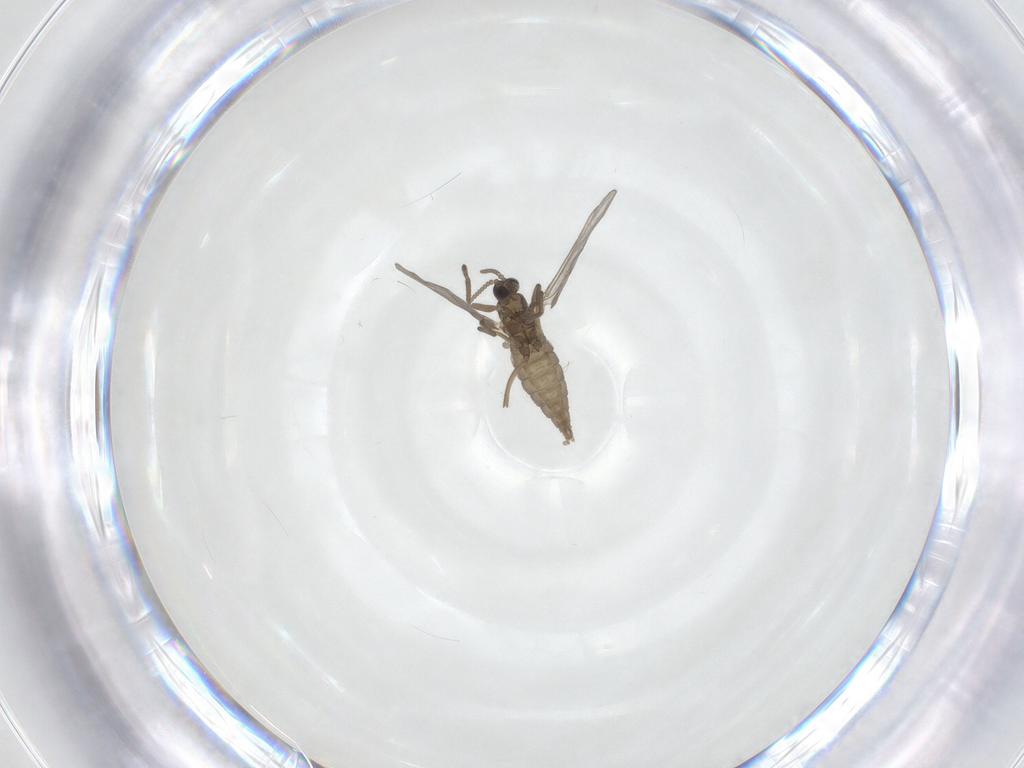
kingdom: Animalia
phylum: Arthropoda
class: Insecta
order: Diptera
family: Cecidomyiidae
